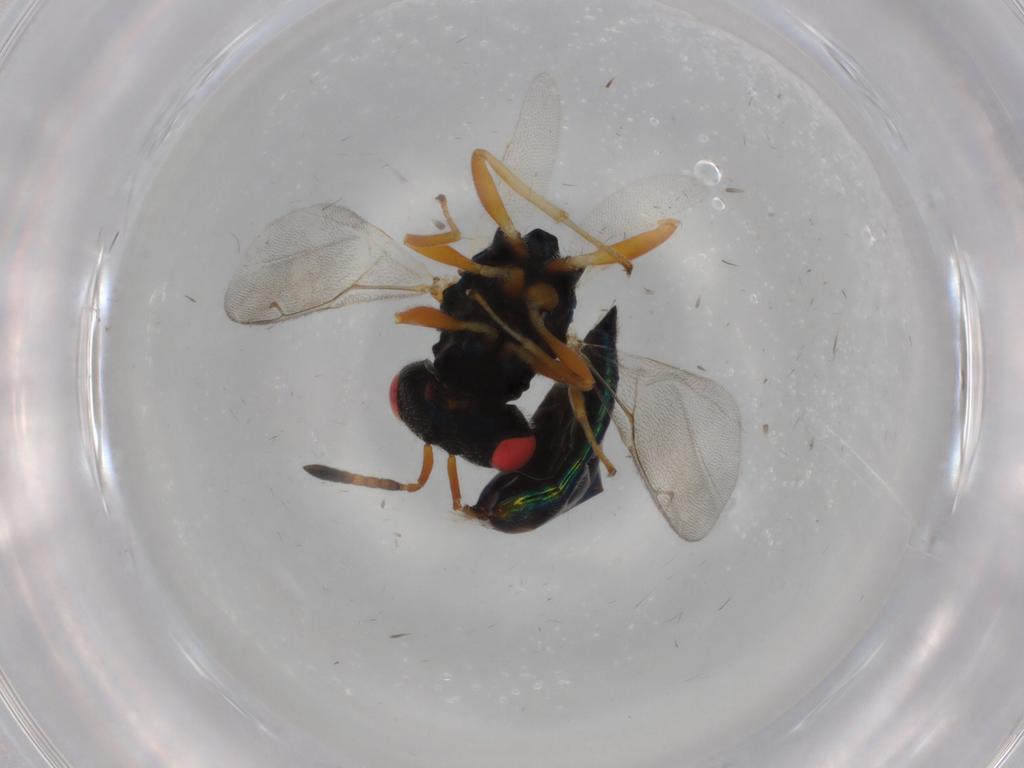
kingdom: Animalia
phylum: Arthropoda
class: Insecta
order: Hymenoptera
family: Pteromalidae
